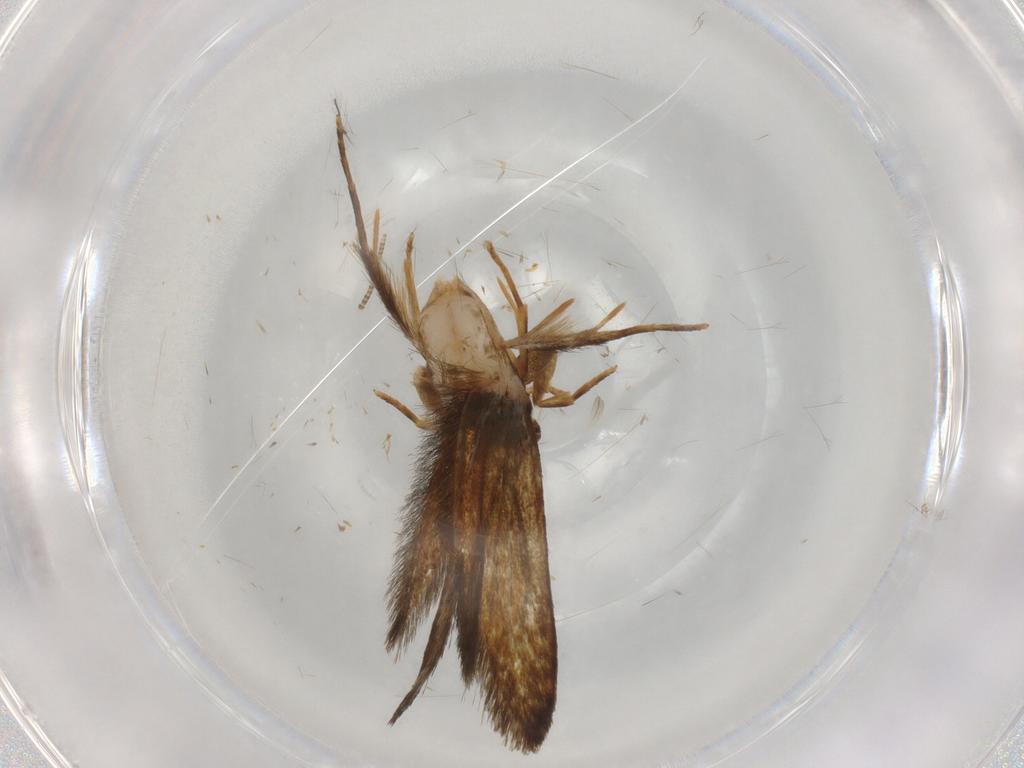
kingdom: Animalia
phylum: Arthropoda
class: Insecta
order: Lepidoptera
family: Tineidae
